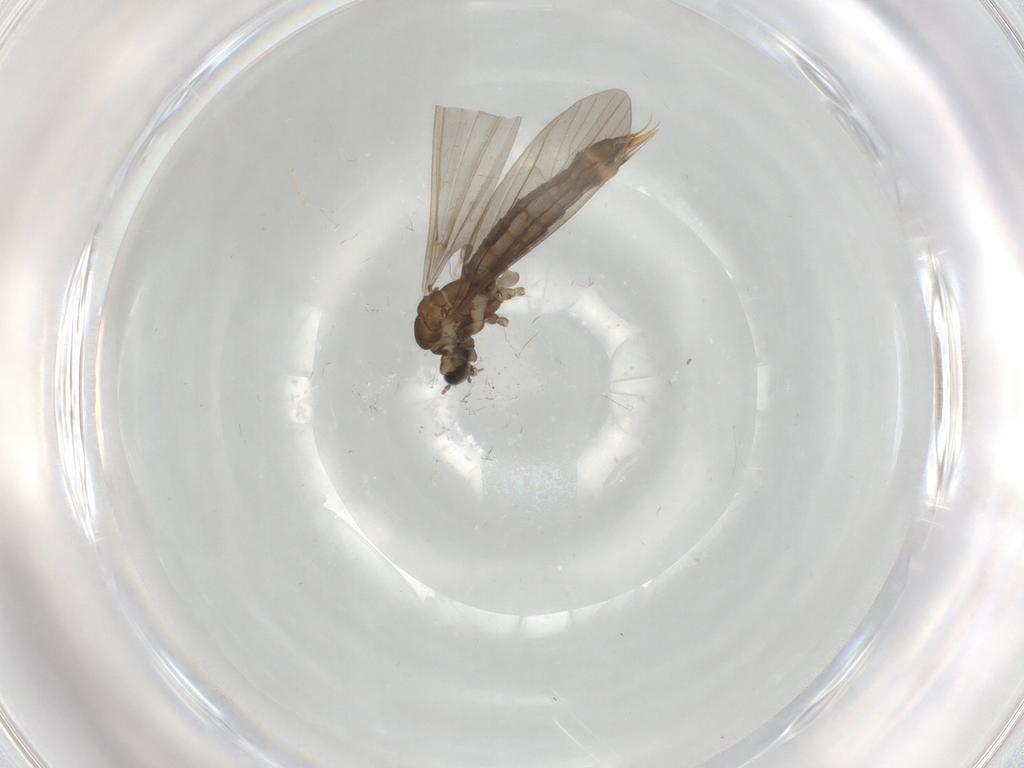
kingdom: Animalia
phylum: Arthropoda
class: Insecta
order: Diptera
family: Limoniidae
